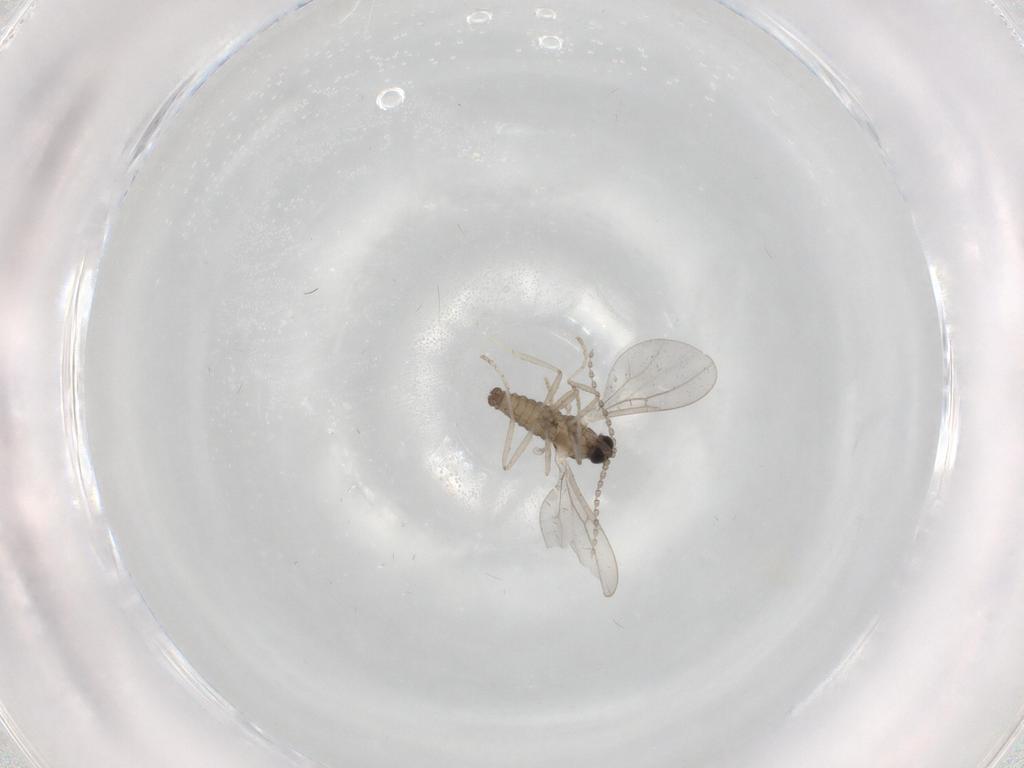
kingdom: Animalia
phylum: Arthropoda
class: Insecta
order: Diptera
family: Cecidomyiidae
